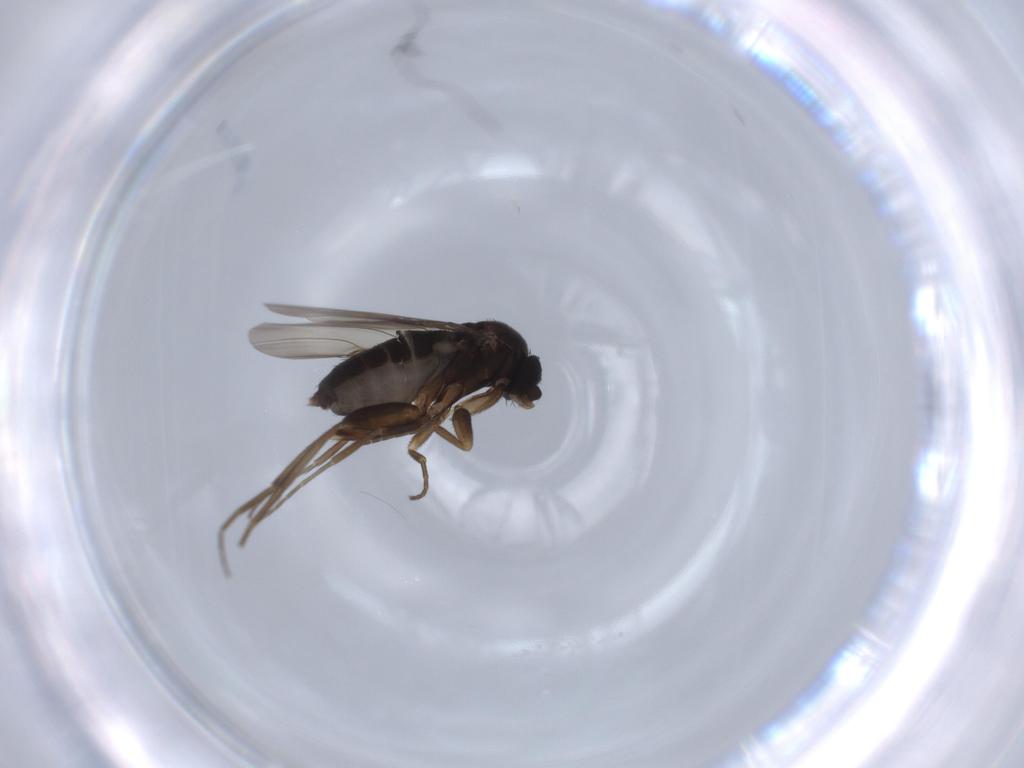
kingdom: Animalia
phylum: Arthropoda
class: Insecta
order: Diptera
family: Phoridae
